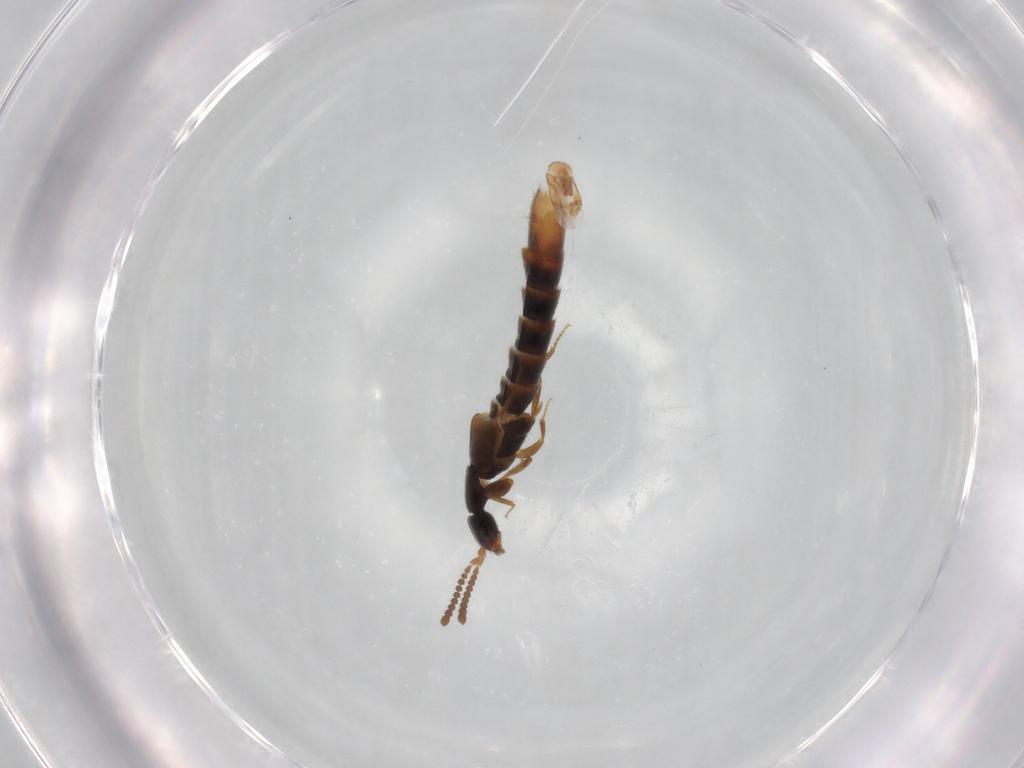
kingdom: Animalia
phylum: Arthropoda
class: Insecta
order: Coleoptera
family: Staphylinidae
